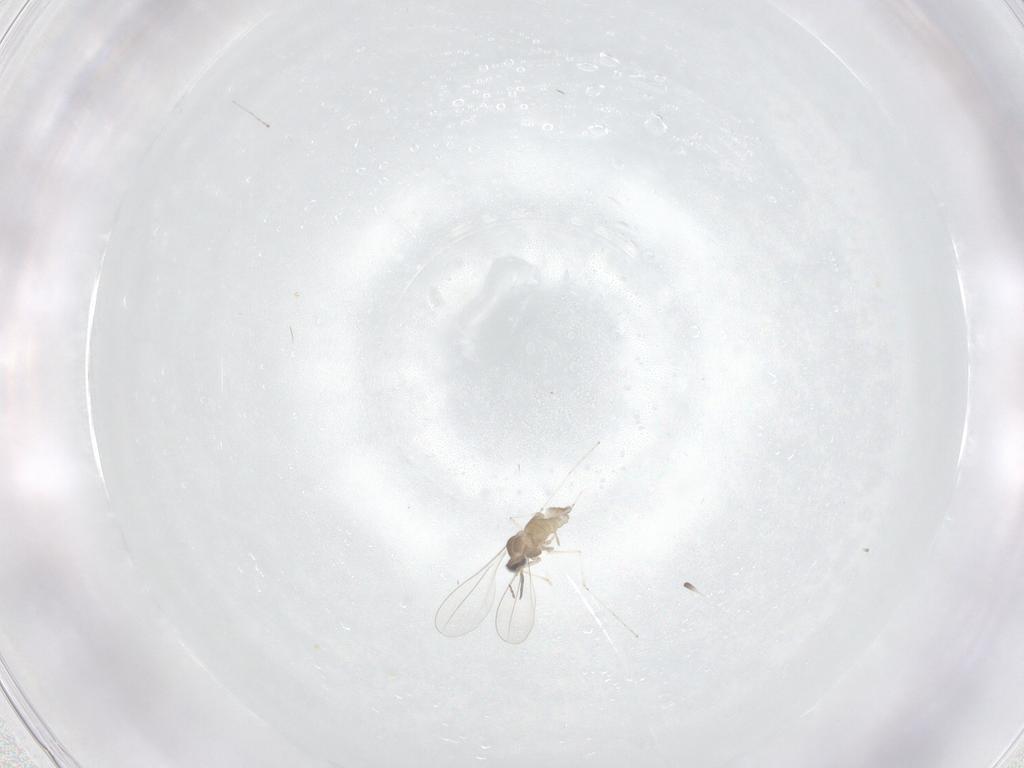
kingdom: Animalia
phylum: Arthropoda
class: Insecta
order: Diptera
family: Cecidomyiidae
